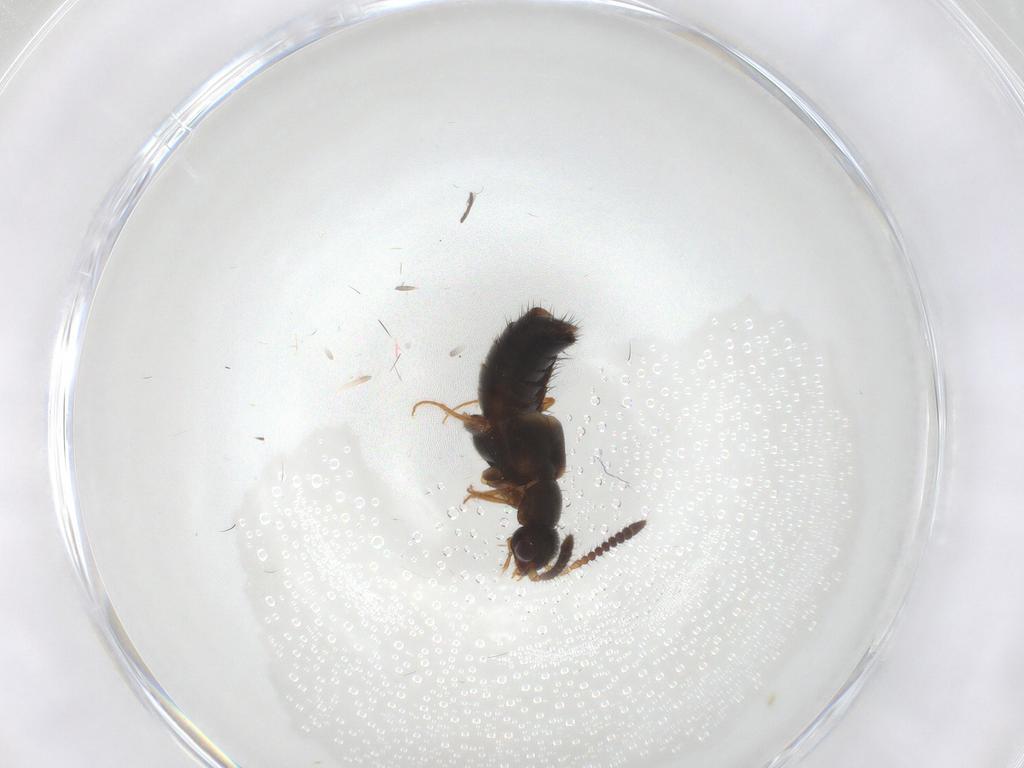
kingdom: Animalia
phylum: Arthropoda
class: Insecta
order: Coleoptera
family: Staphylinidae
